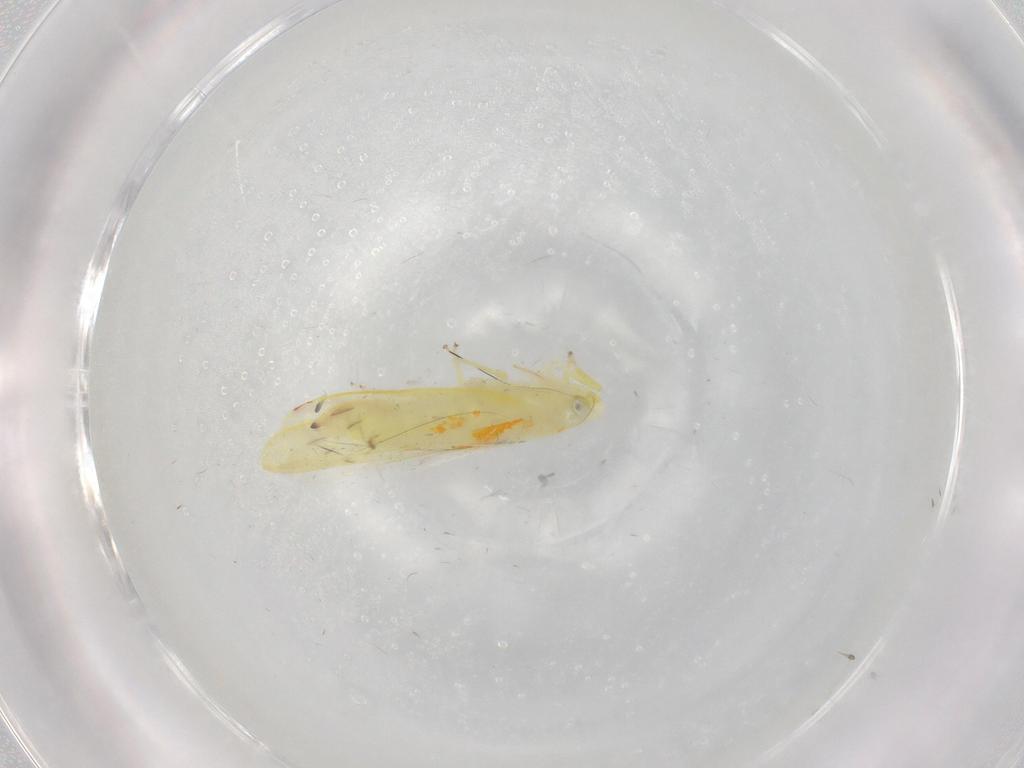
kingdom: Animalia
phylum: Arthropoda
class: Insecta
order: Hemiptera
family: Cicadellidae
